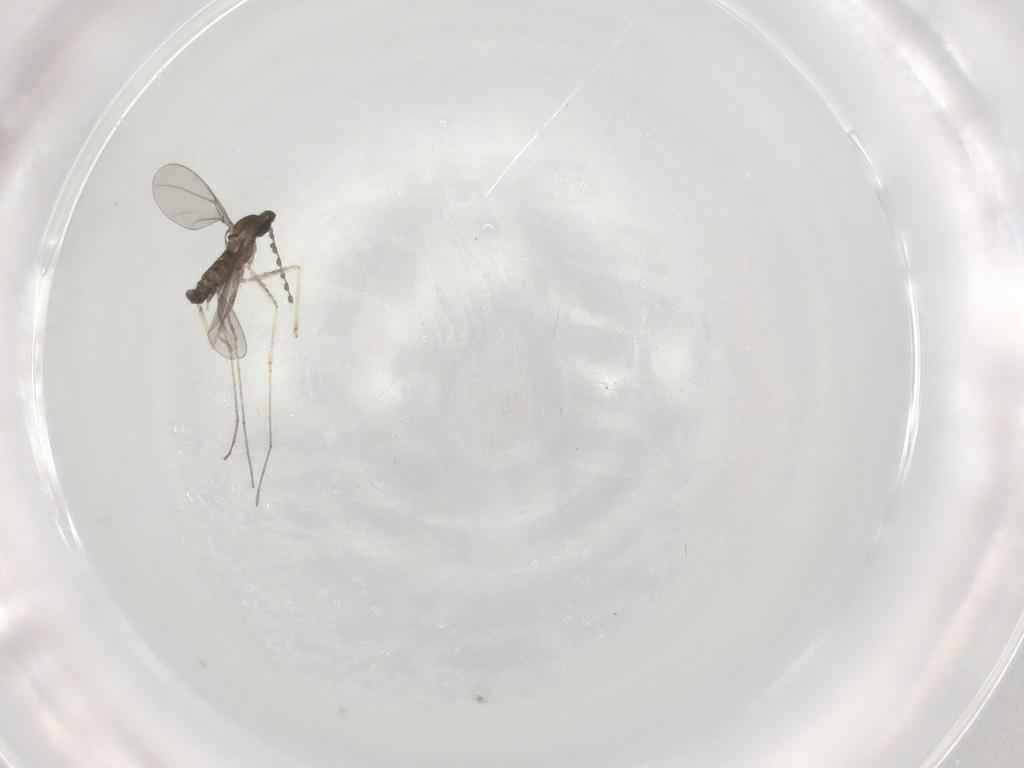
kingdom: Animalia
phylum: Arthropoda
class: Insecta
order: Diptera
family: Cecidomyiidae
